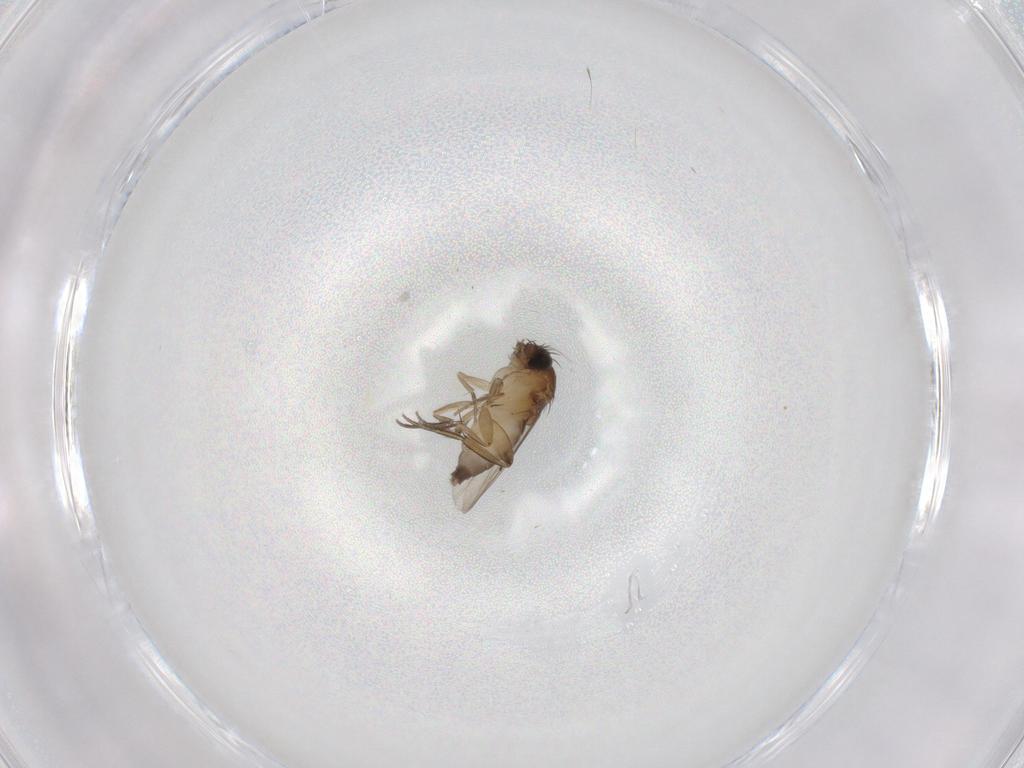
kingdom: Animalia
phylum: Arthropoda
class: Insecta
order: Diptera
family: Phoridae
